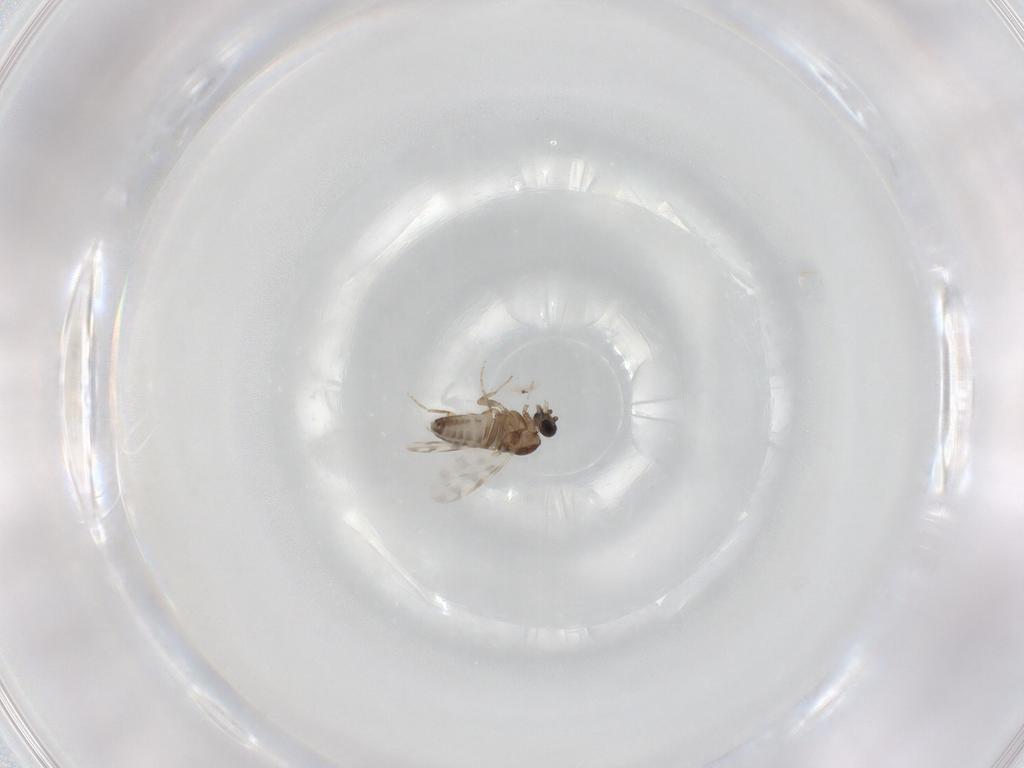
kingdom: Animalia
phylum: Arthropoda
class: Insecta
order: Diptera
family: Ceratopogonidae
